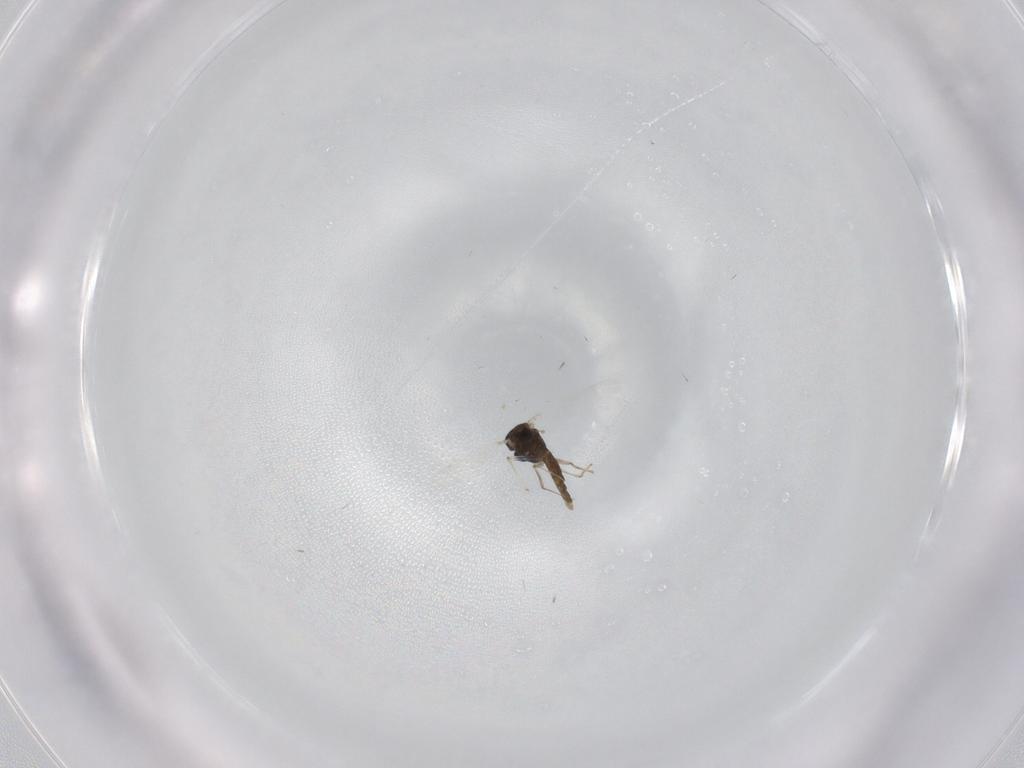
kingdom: Animalia
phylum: Arthropoda
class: Insecta
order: Diptera
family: Chironomidae
